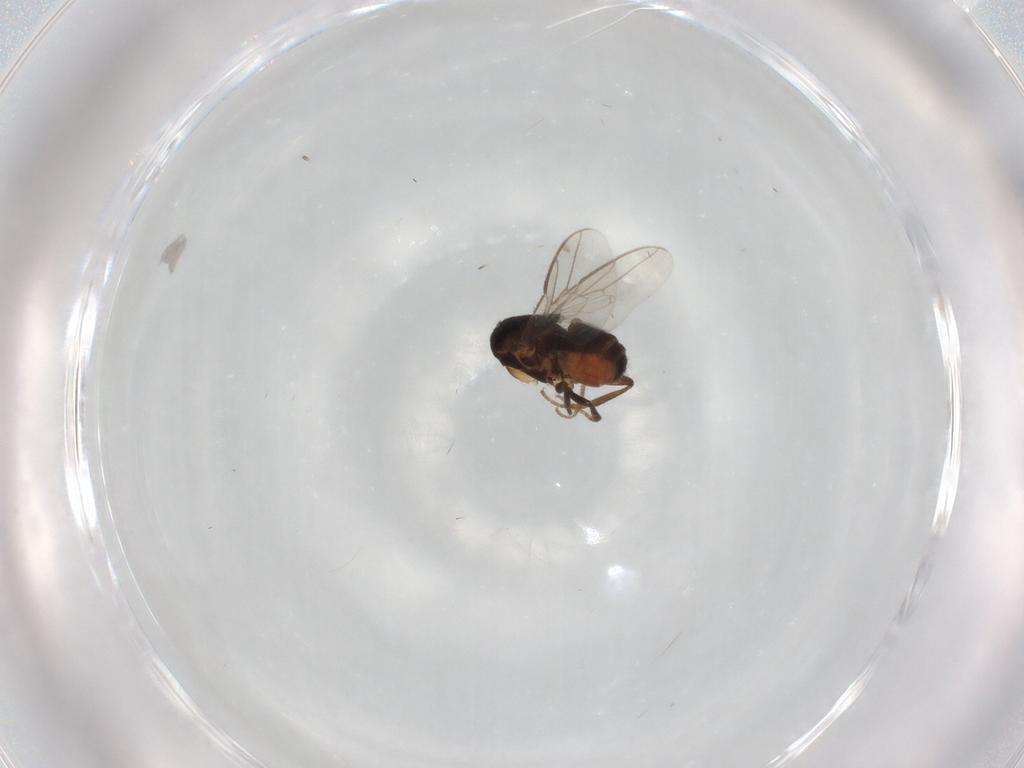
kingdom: Animalia
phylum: Arthropoda
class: Insecta
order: Diptera
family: Sphaeroceridae
